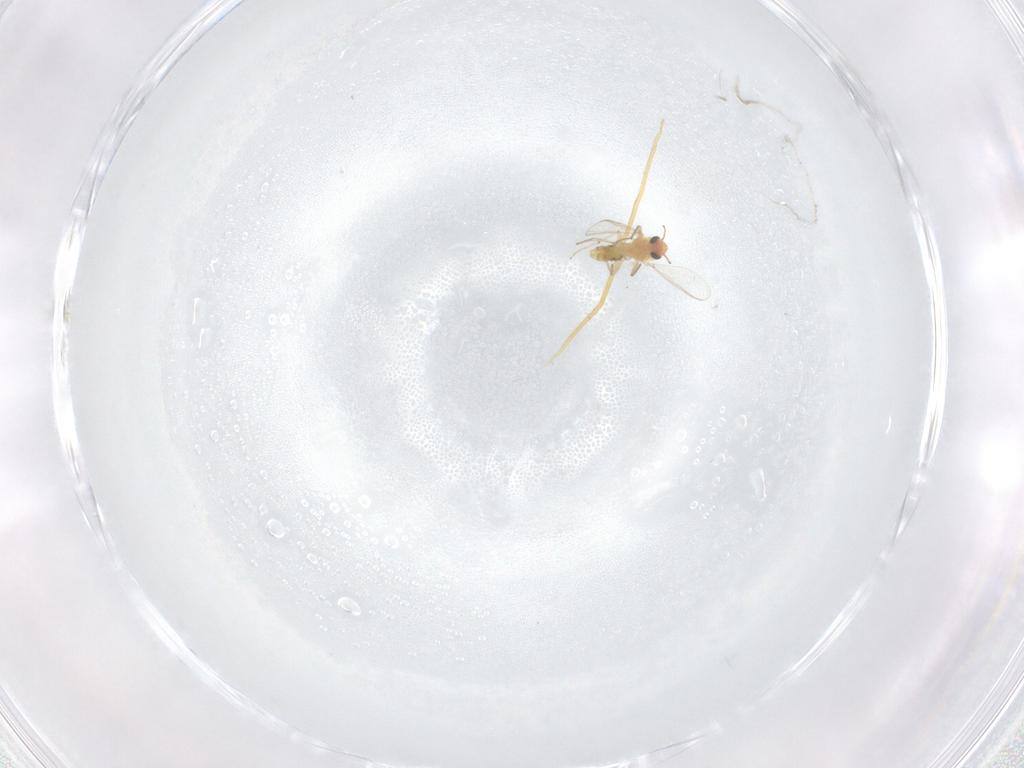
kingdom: Animalia
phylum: Arthropoda
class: Insecta
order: Diptera
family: Chironomidae
